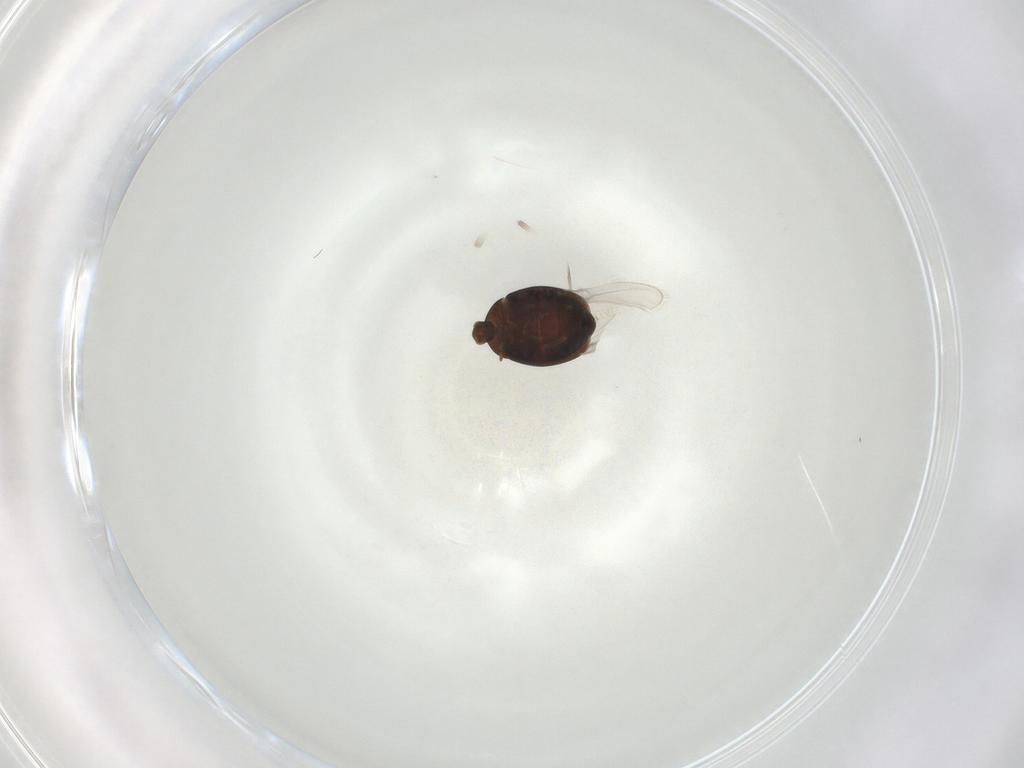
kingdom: Animalia
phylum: Arthropoda
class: Insecta
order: Coleoptera
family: Corylophidae
